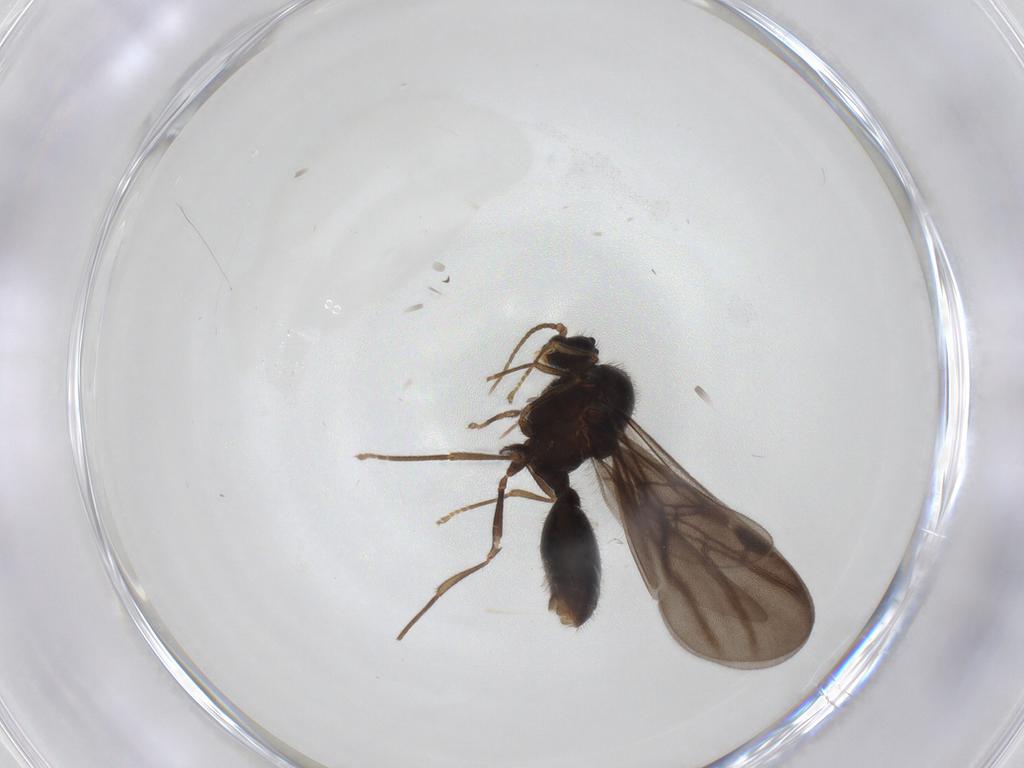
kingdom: Animalia
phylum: Arthropoda
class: Insecta
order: Hymenoptera
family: Formicidae
